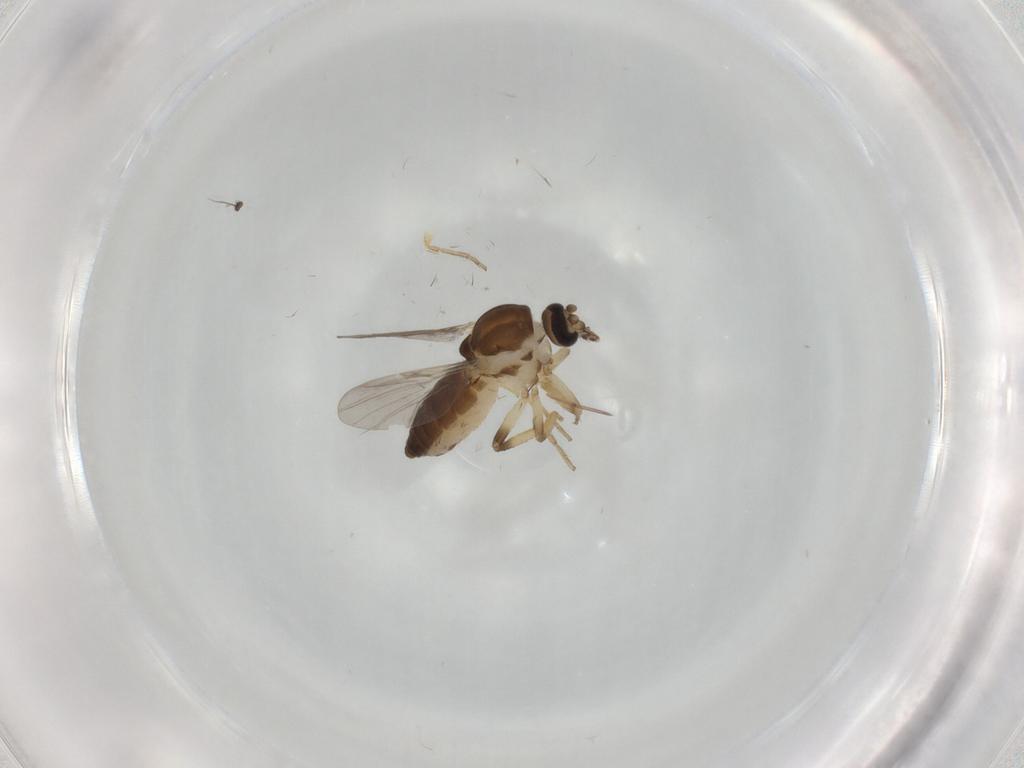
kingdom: Animalia
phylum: Arthropoda
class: Insecta
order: Diptera
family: Ceratopogonidae
